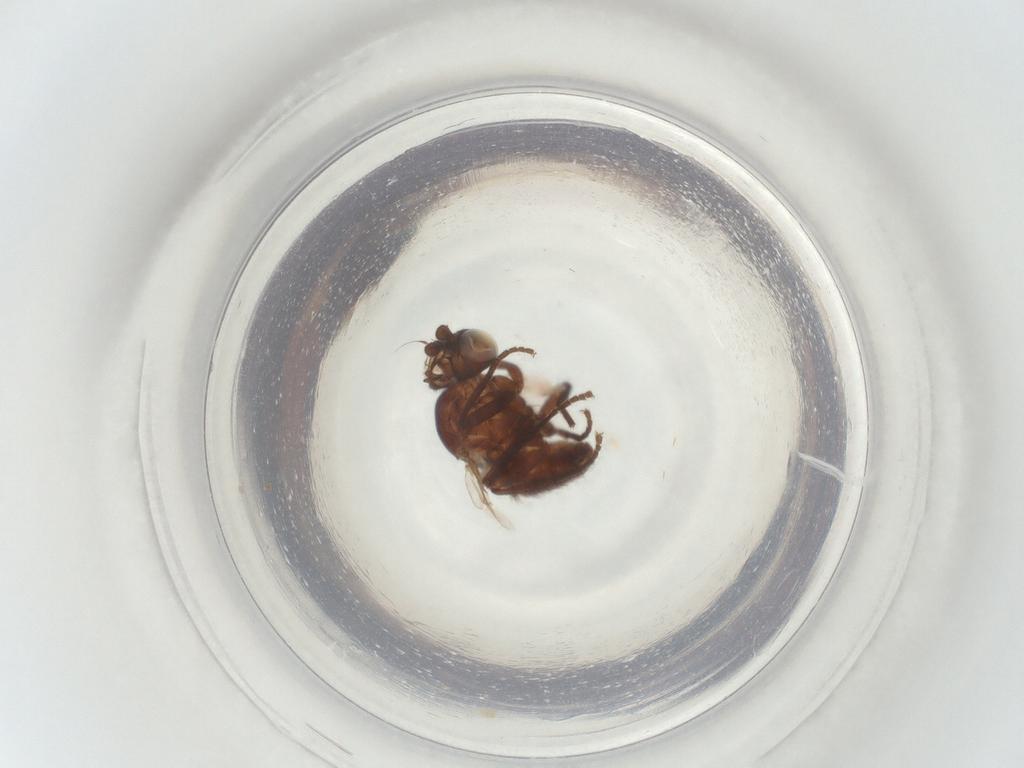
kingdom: Animalia
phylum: Arthropoda
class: Insecta
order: Diptera
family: Agromyzidae
